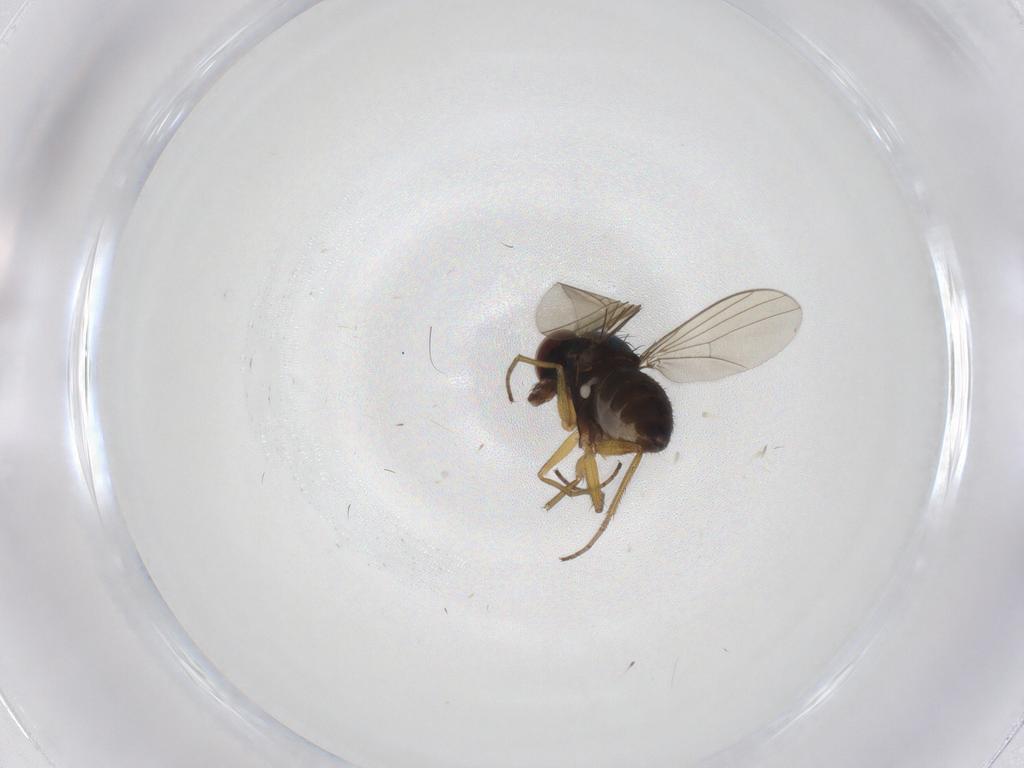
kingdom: Animalia
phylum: Arthropoda
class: Insecta
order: Diptera
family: Dolichopodidae
